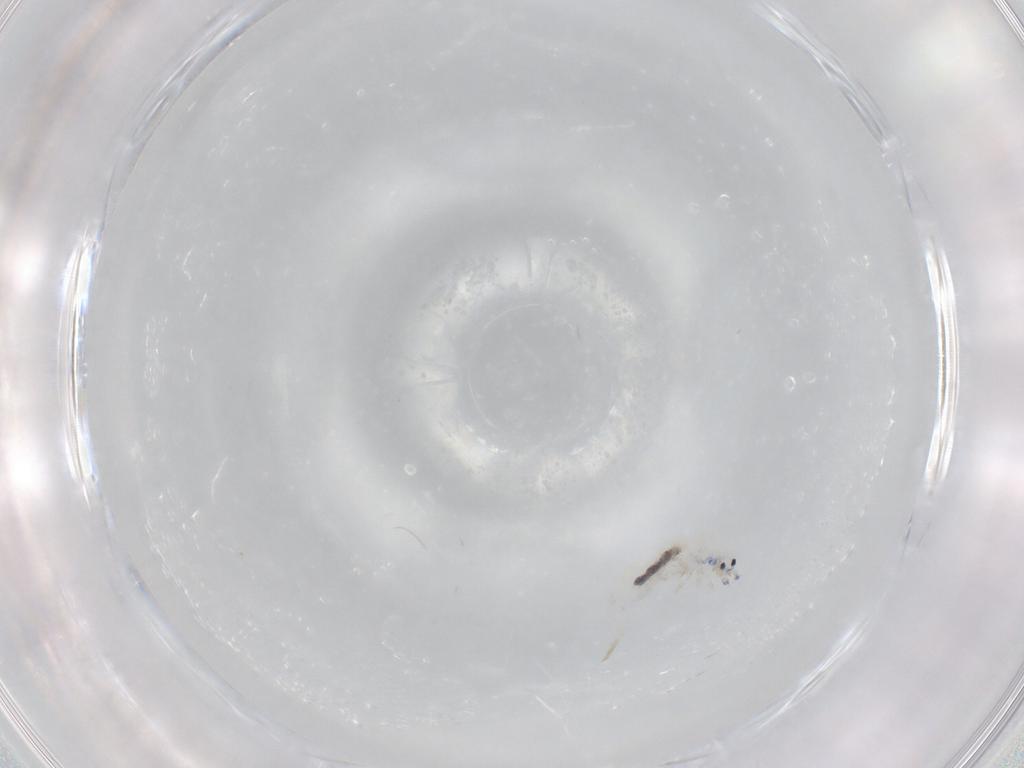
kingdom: Animalia
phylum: Arthropoda
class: Collembola
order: Entomobryomorpha
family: Entomobryidae
